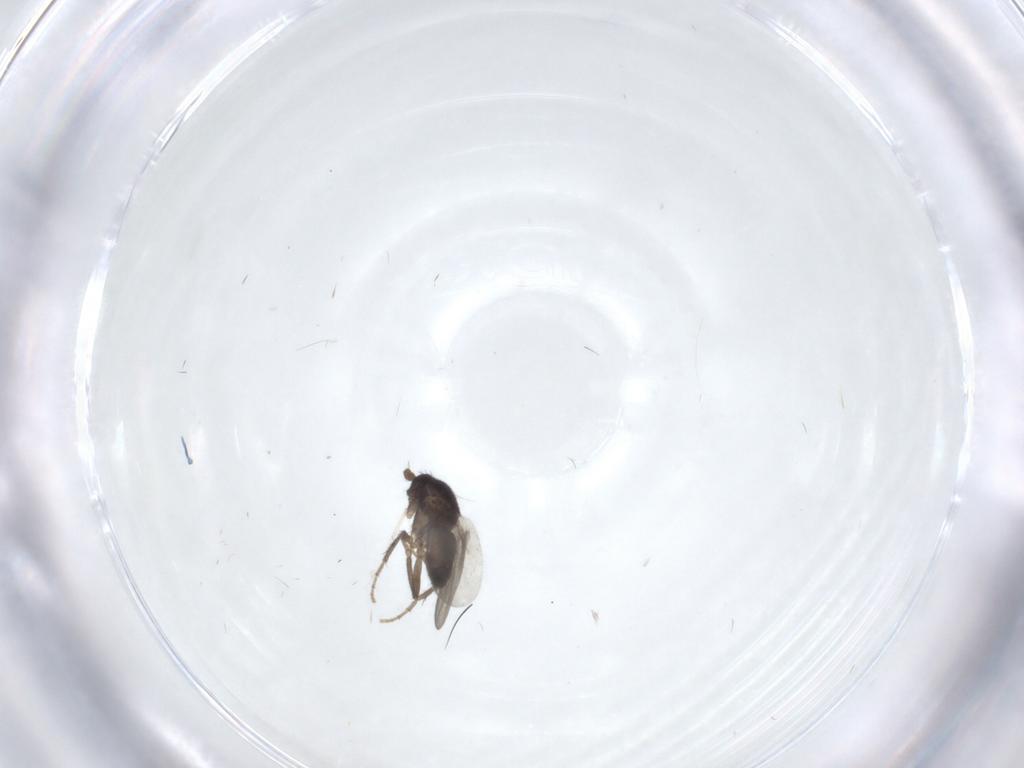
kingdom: Animalia
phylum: Arthropoda
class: Insecta
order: Diptera
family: Sphaeroceridae
